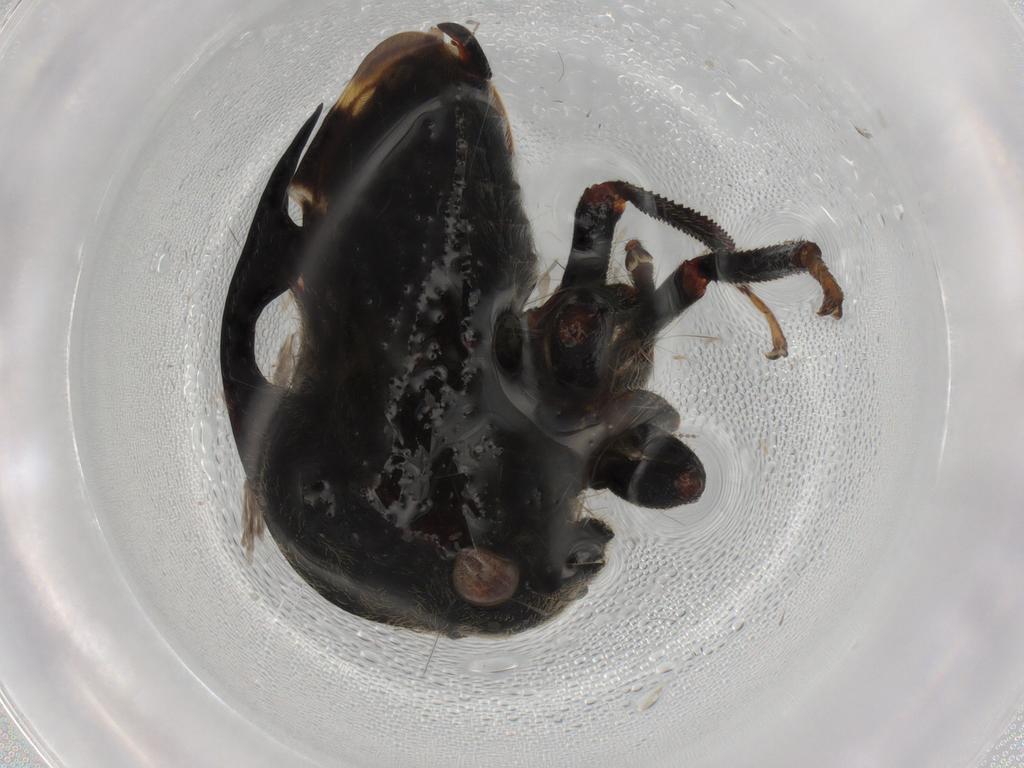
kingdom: Animalia
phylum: Arthropoda
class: Insecta
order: Hemiptera
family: Membracidae
